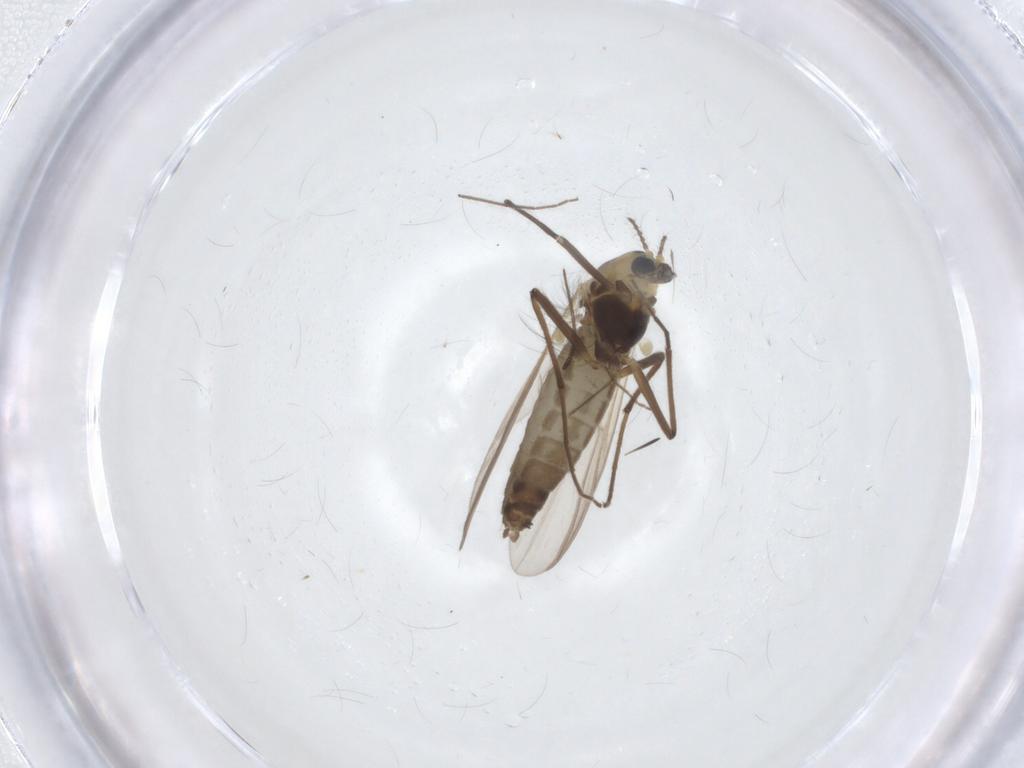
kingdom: Animalia
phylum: Arthropoda
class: Insecta
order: Diptera
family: Chironomidae
